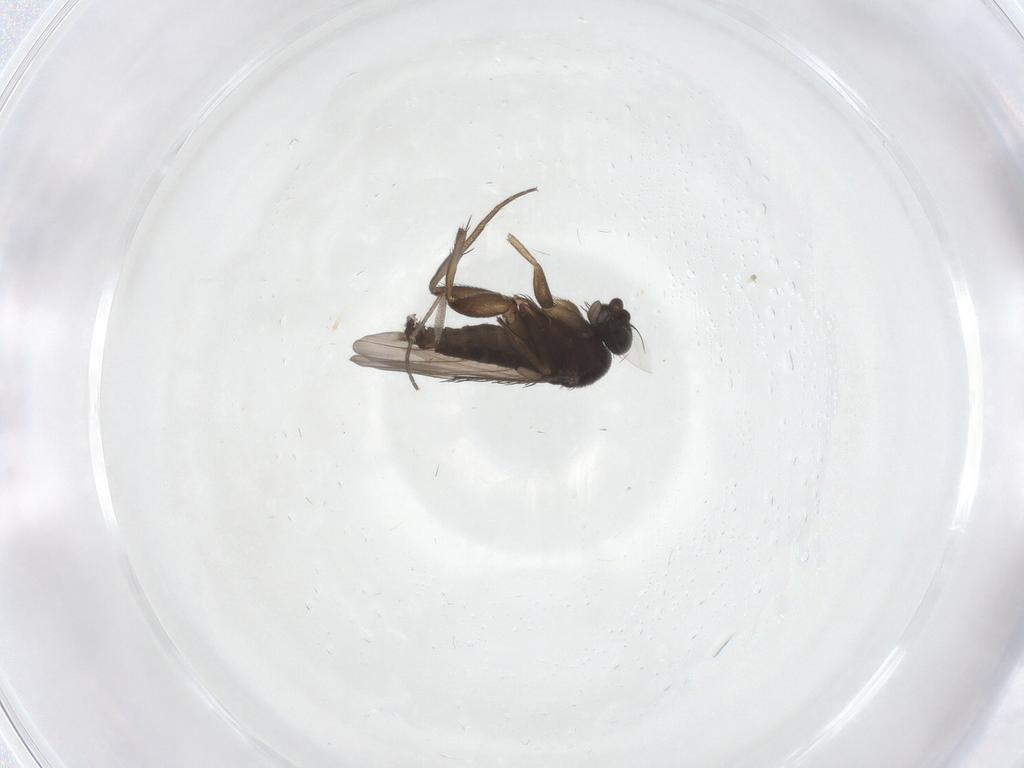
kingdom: Animalia
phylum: Arthropoda
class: Insecta
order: Diptera
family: Phoridae
